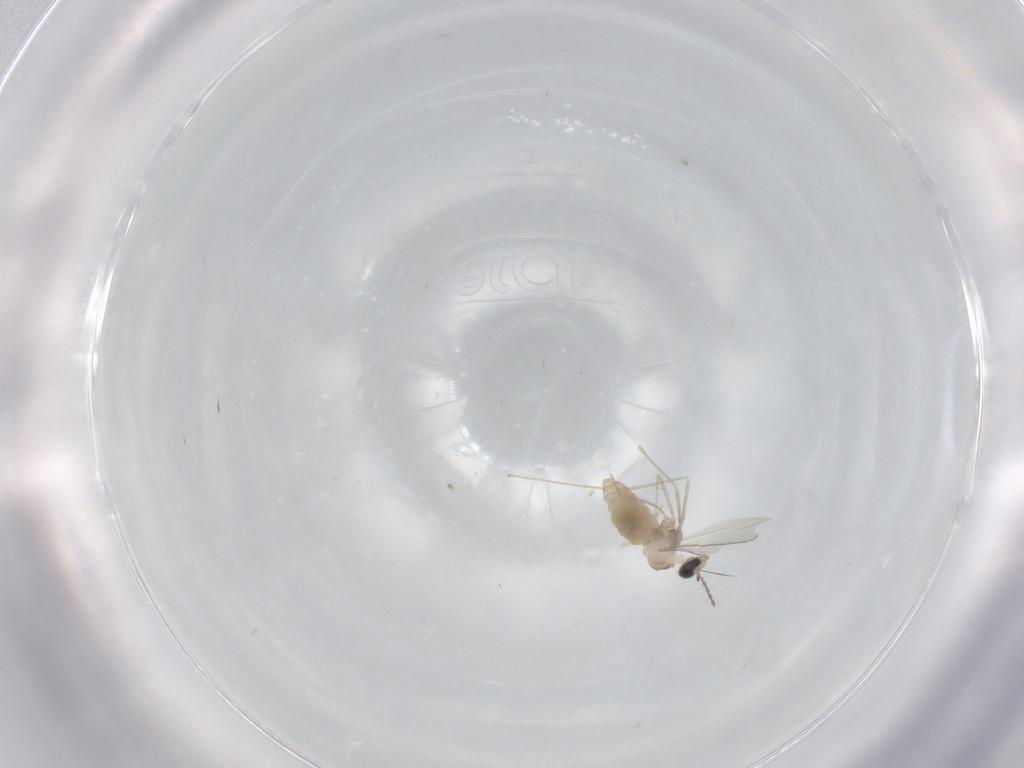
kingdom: Animalia
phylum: Arthropoda
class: Insecta
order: Diptera
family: Cecidomyiidae
